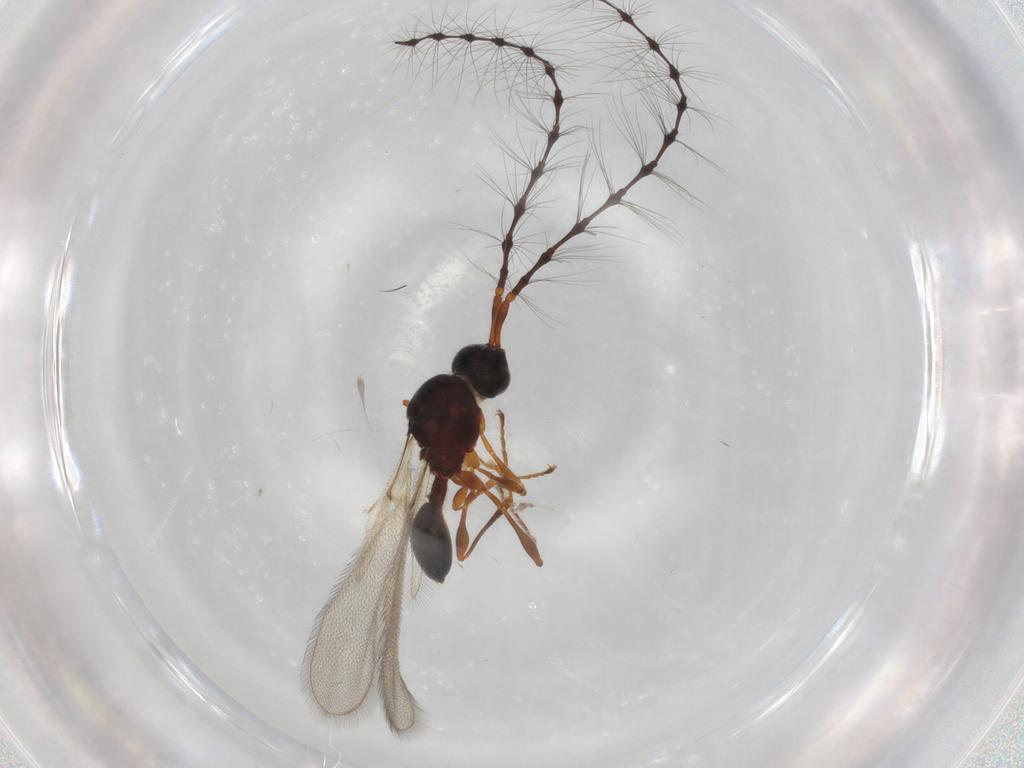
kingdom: Animalia
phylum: Arthropoda
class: Insecta
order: Hymenoptera
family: Diapriidae
